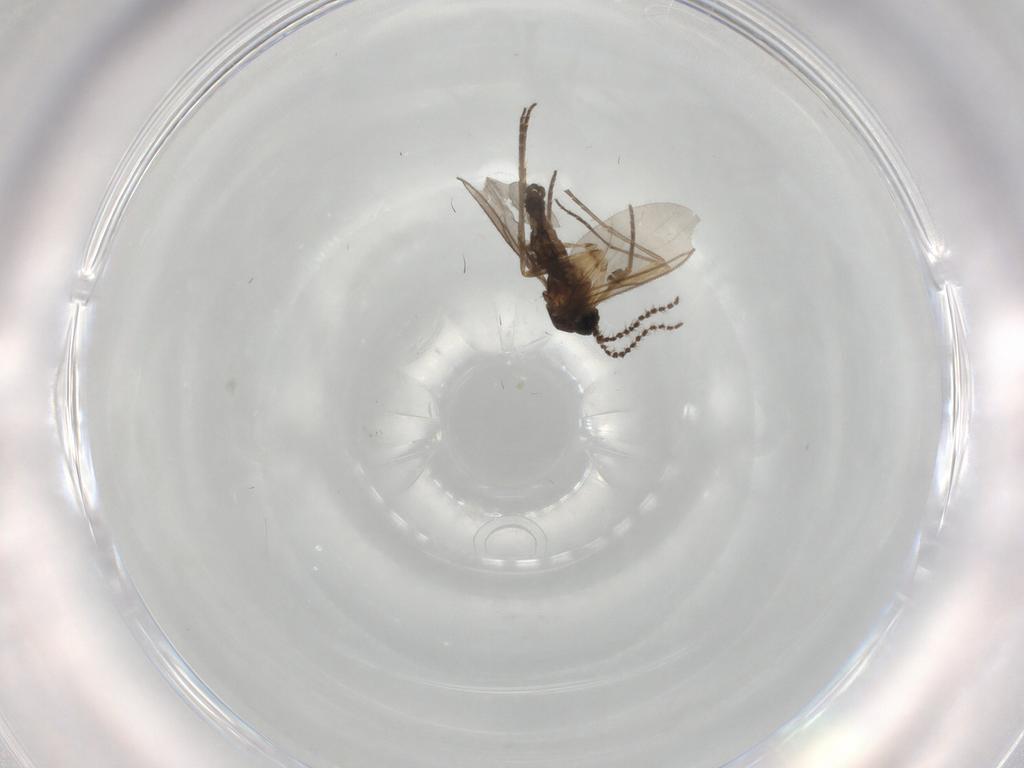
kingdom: Animalia
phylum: Arthropoda
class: Insecta
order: Diptera
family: Sciaridae
